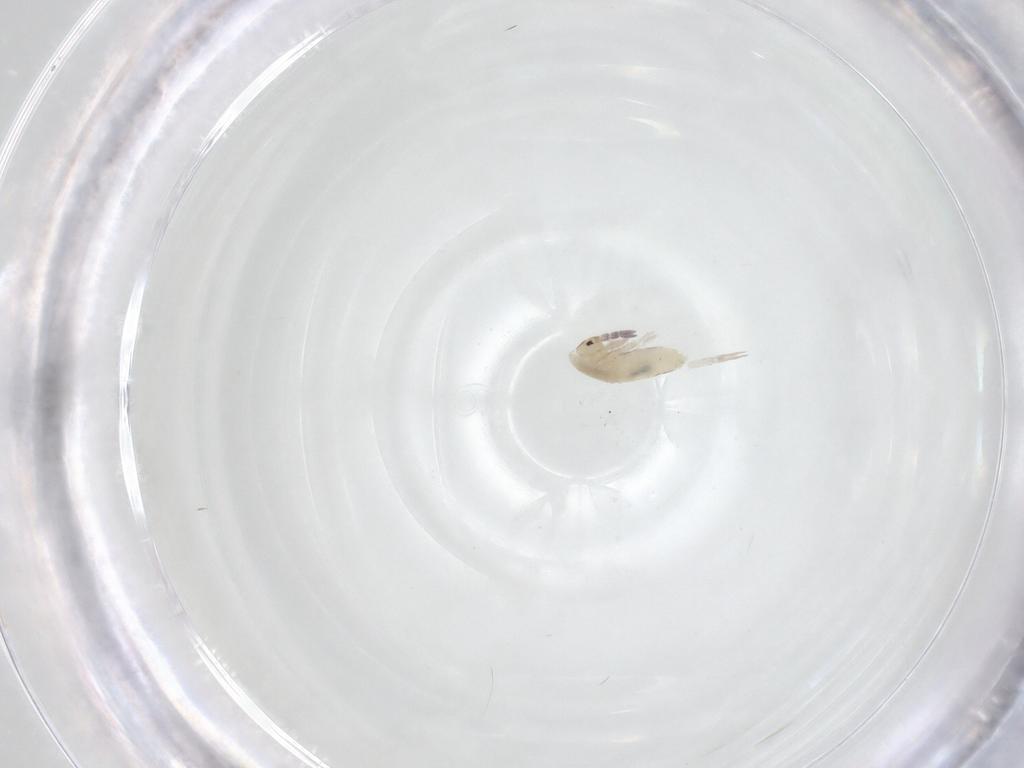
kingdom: Animalia
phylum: Arthropoda
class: Collembola
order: Entomobryomorpha
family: Entomobryidae
